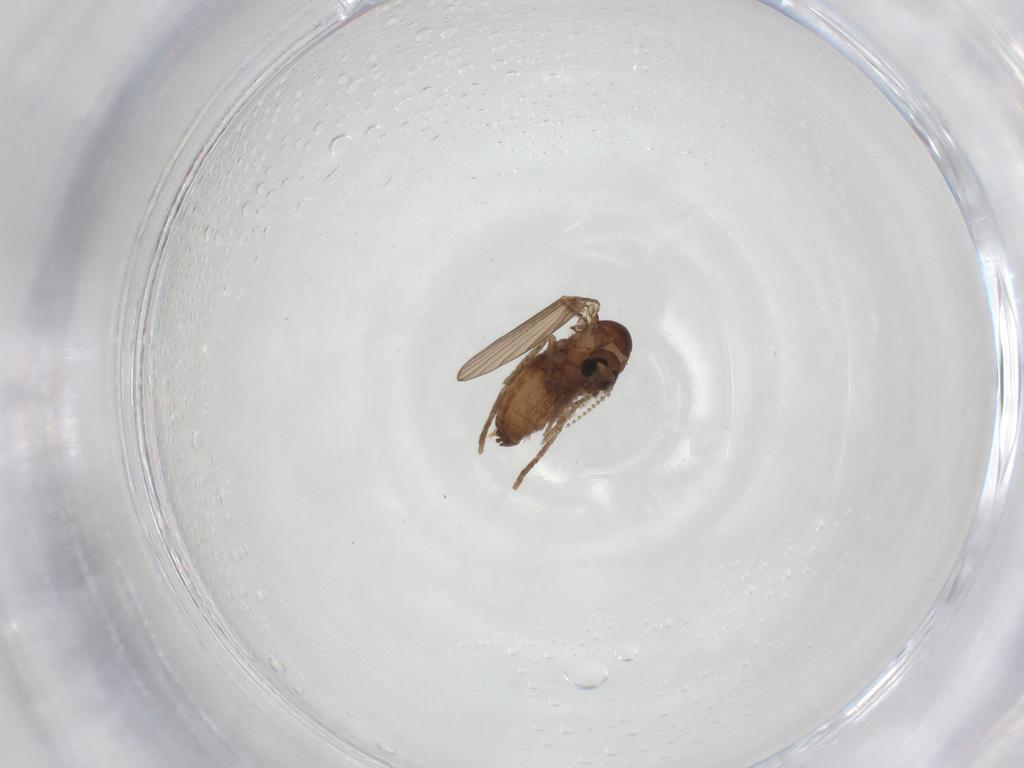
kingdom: Animalia
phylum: Arthropoda
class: Insecta
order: Diptera
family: Psychodidae
